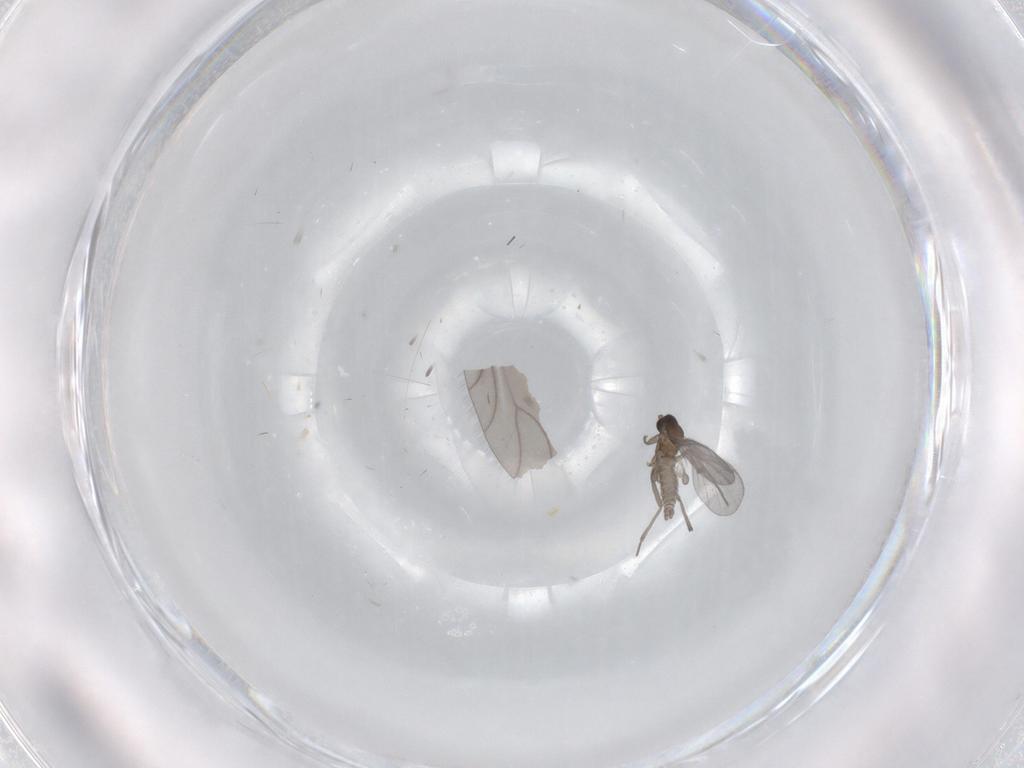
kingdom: Animalia
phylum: Arthropoda
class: Insecta
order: Diptera
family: Sciaridae
